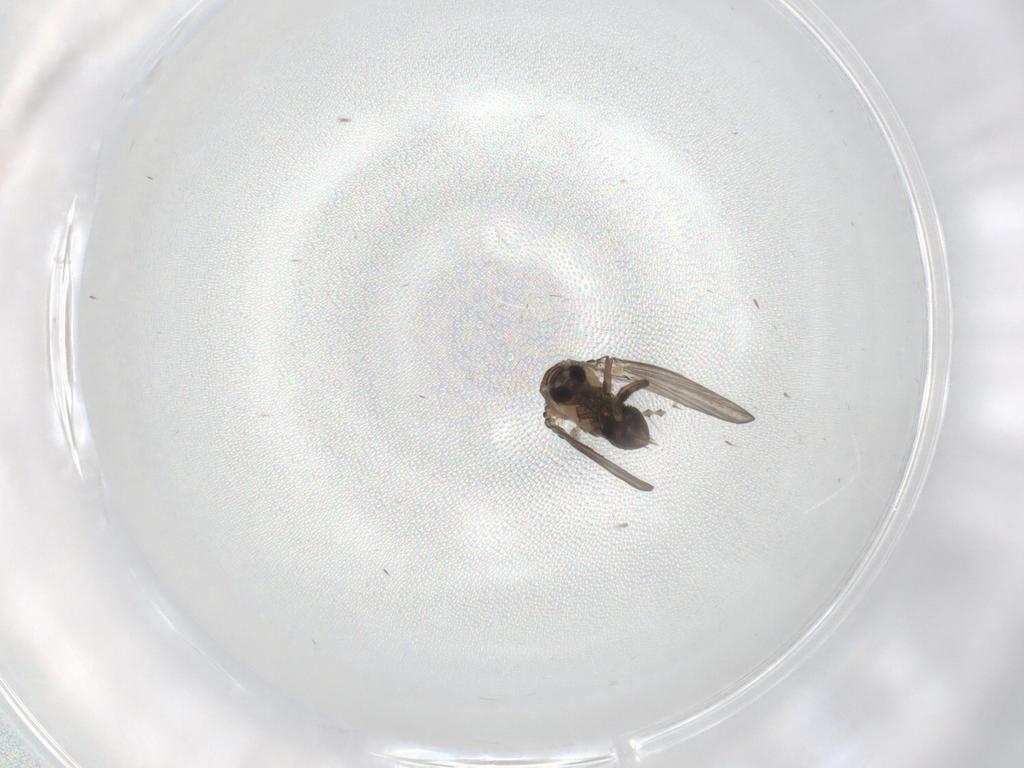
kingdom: Animalia
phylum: Arthropoda
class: Insecta
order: Diptera
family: Psychodidae
